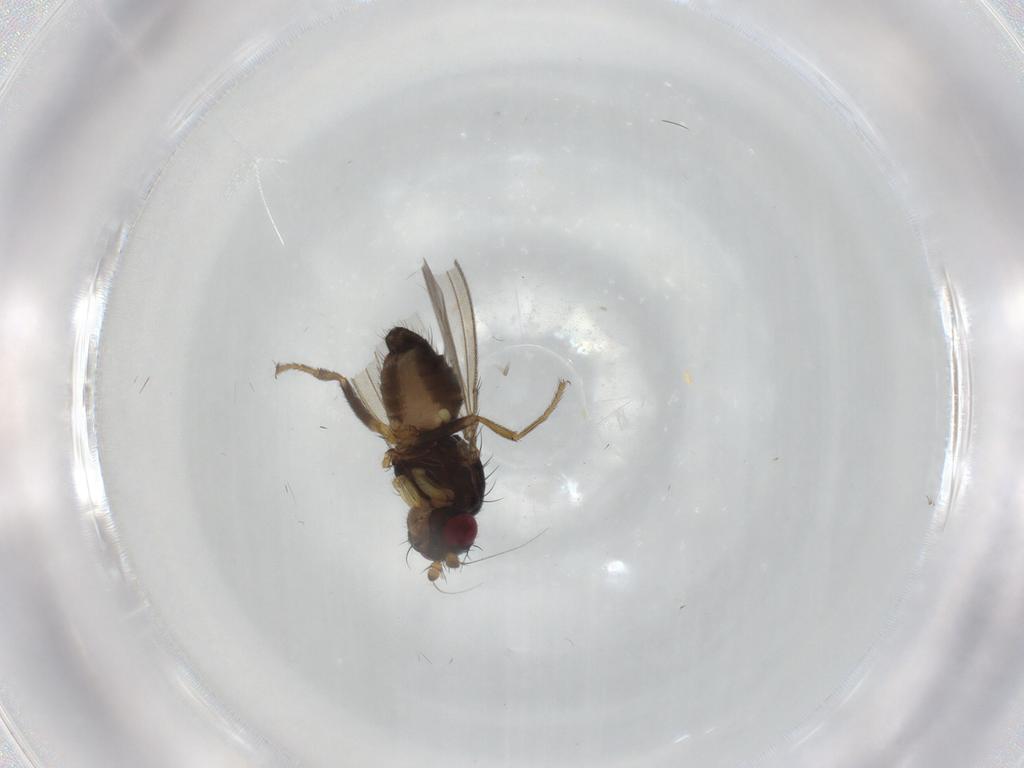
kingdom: Animalia
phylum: Arthropoda
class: Insecta
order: Diptera
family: Cypselosomatidae
